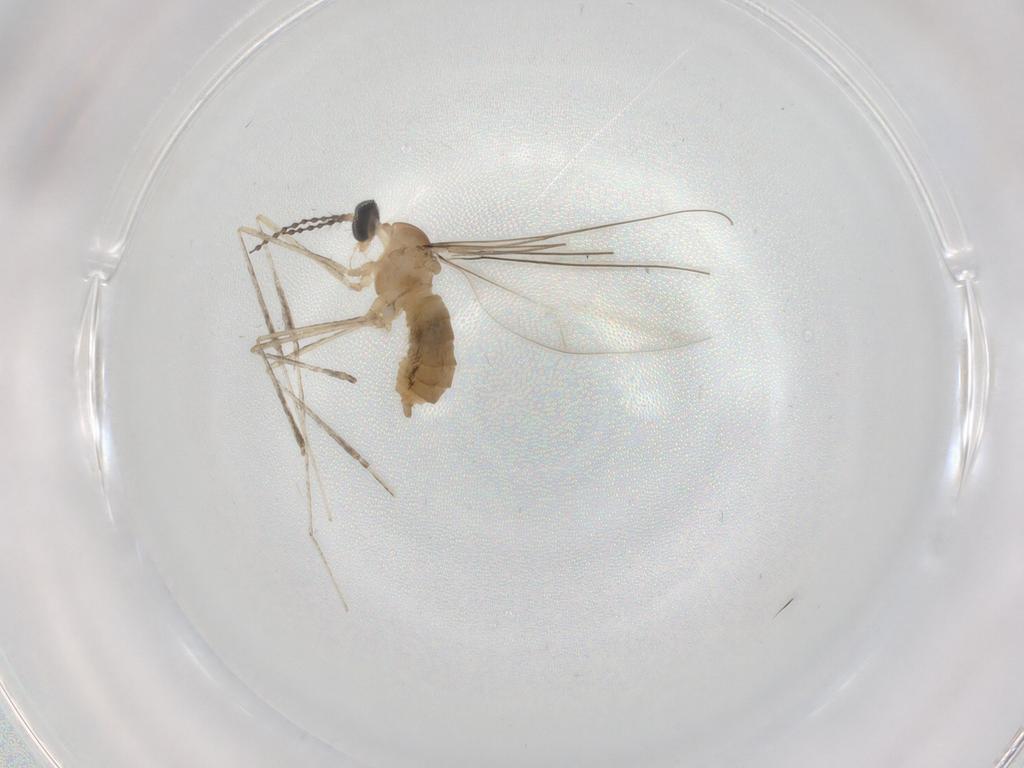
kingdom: Animalia
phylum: Arthropoda
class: Insecta
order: Diptera
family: Cecidomyiidae
